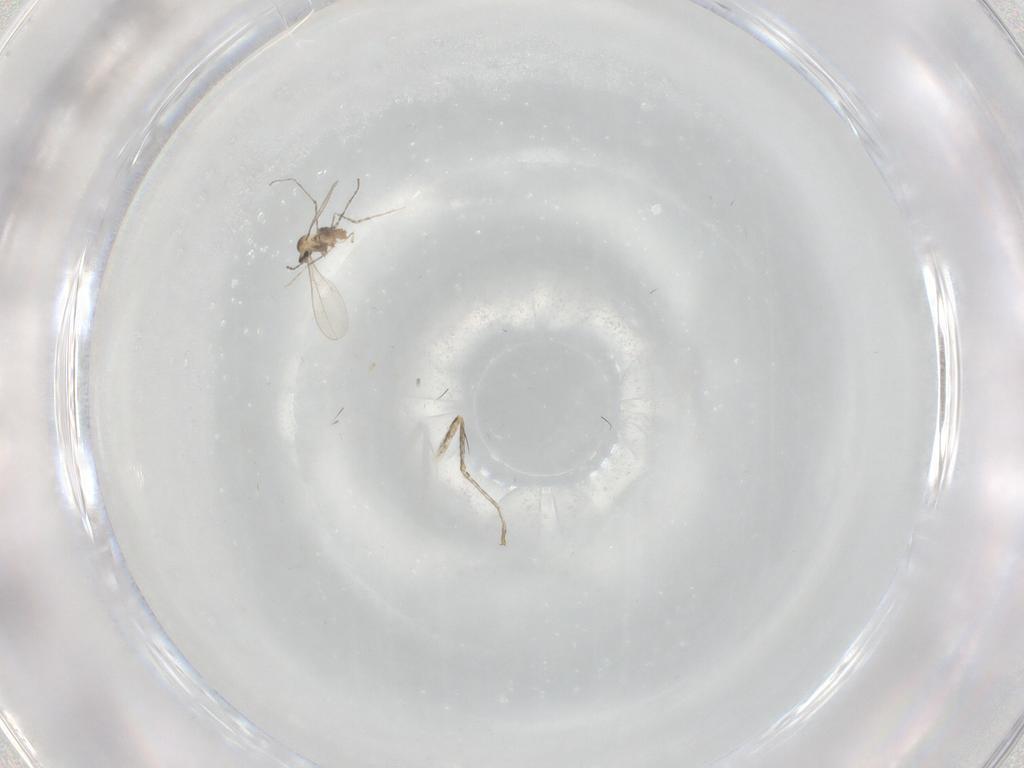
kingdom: Animalia
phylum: Arthropoda
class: Insecta
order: Diptera
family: Cecidomyiidae
